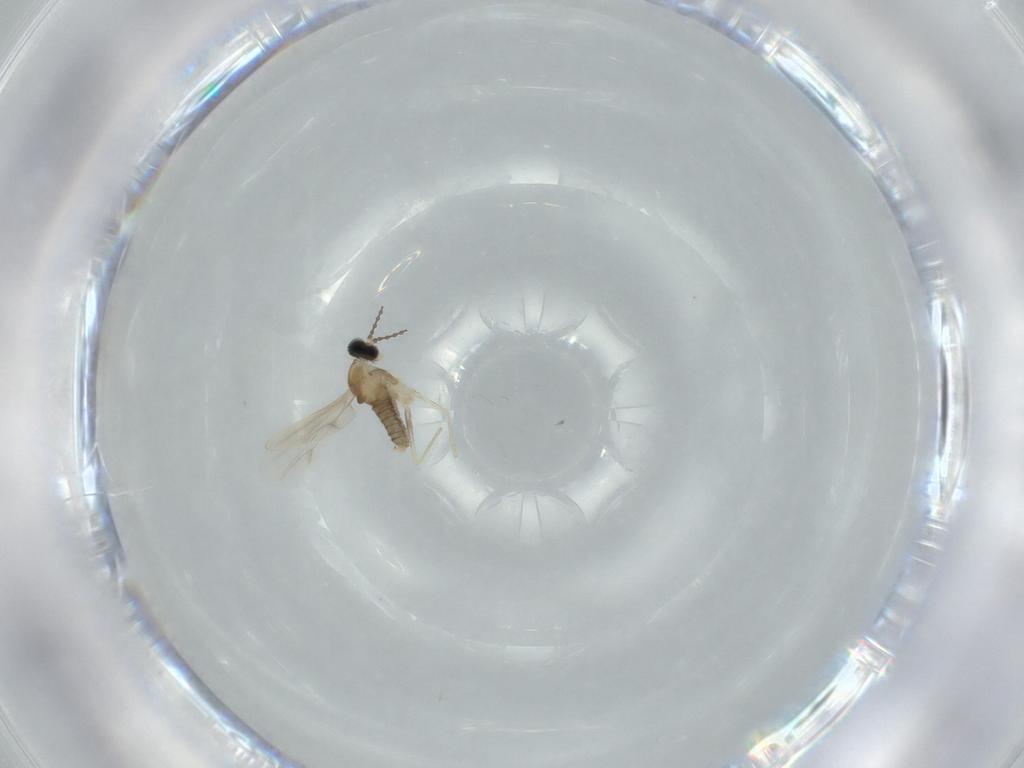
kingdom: Animalia
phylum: Arthropoda
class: Insecta
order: Diptera
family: Cecidomyiidae
